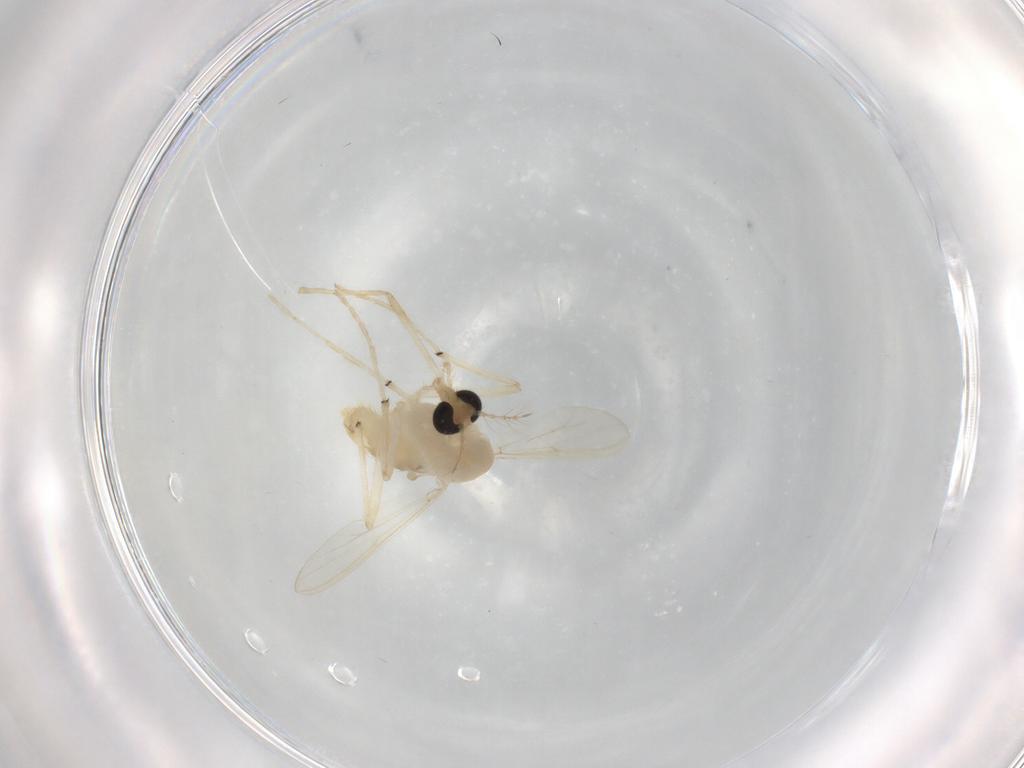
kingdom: Animalia
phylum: Arthropoda
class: Insecta
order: Diptera
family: Chironomidae
